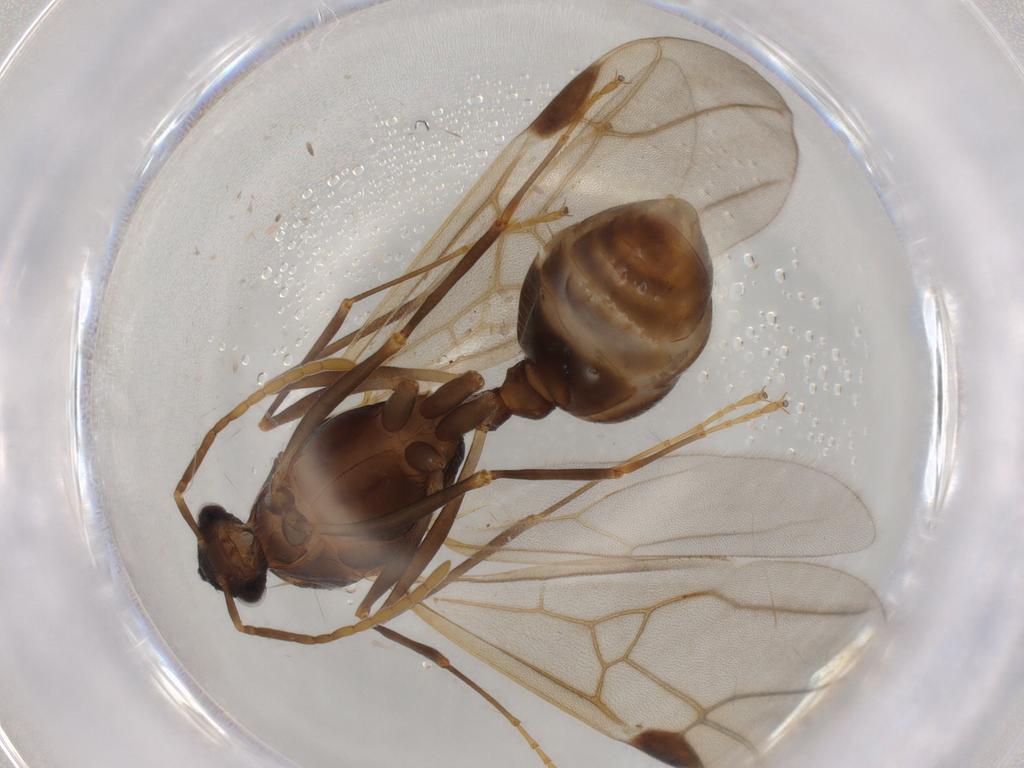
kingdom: Animalia
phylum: Arthropoda
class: Insecta
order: Hymenoptera
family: Formicidae
